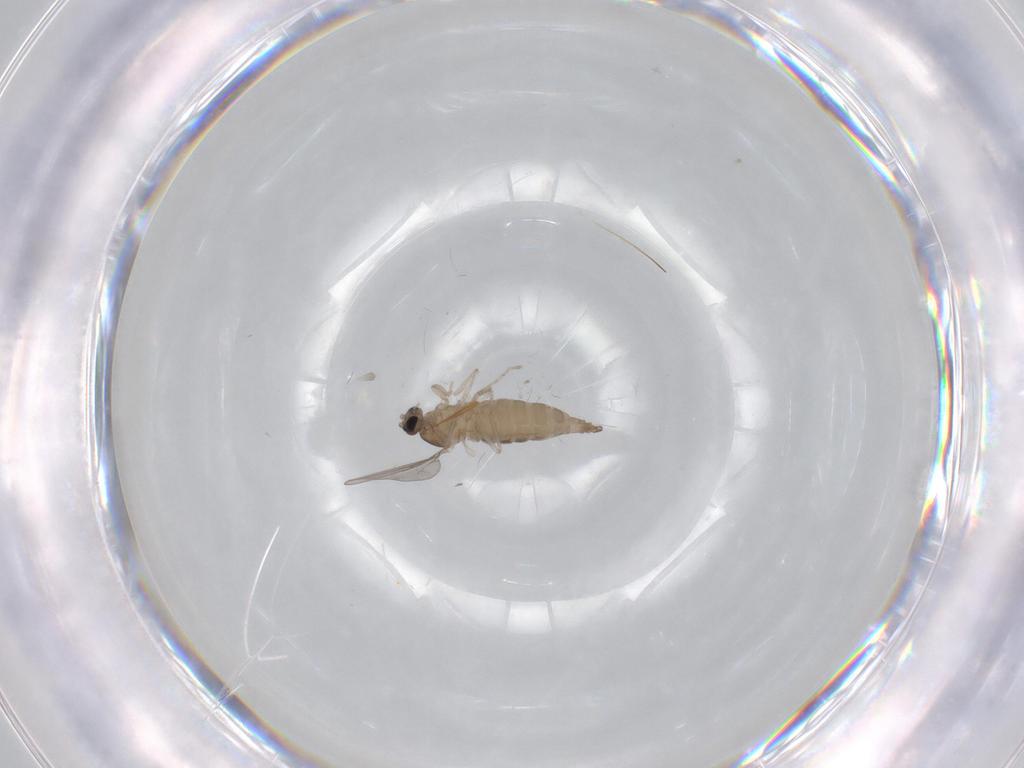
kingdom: Animalia
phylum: Arthropoda
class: Insecta
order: Diptera
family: Cecidomyiidae
